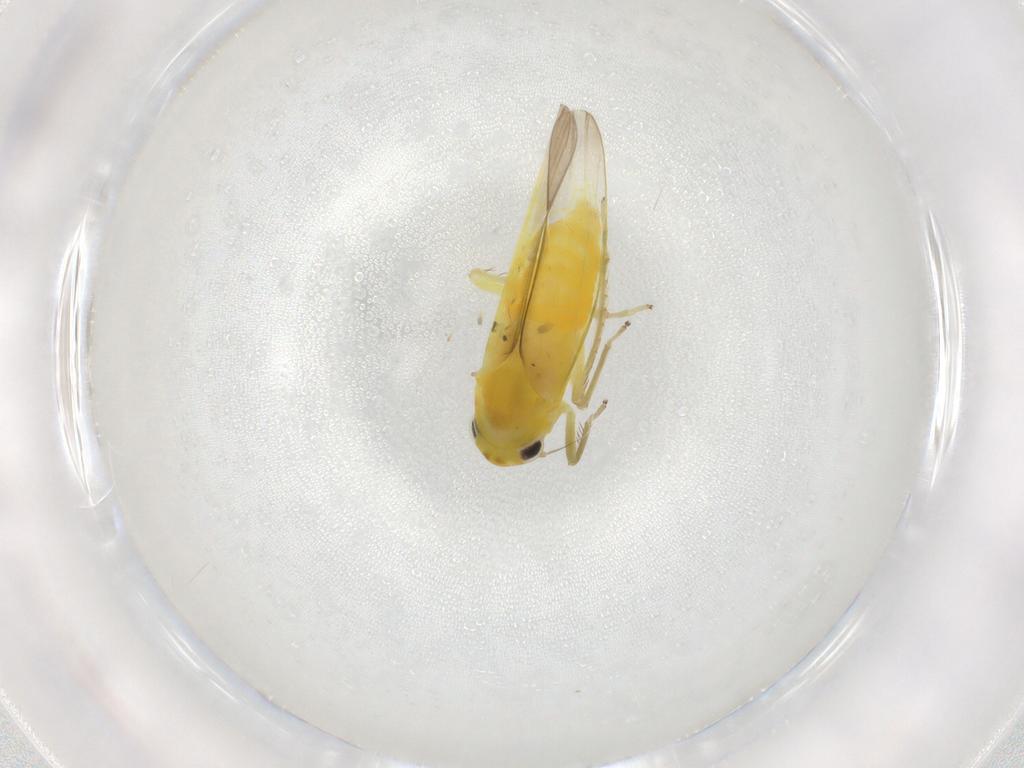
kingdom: Animalia
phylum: Arthropoda
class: Insecta
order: Hemiptera
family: Cicadellidae
